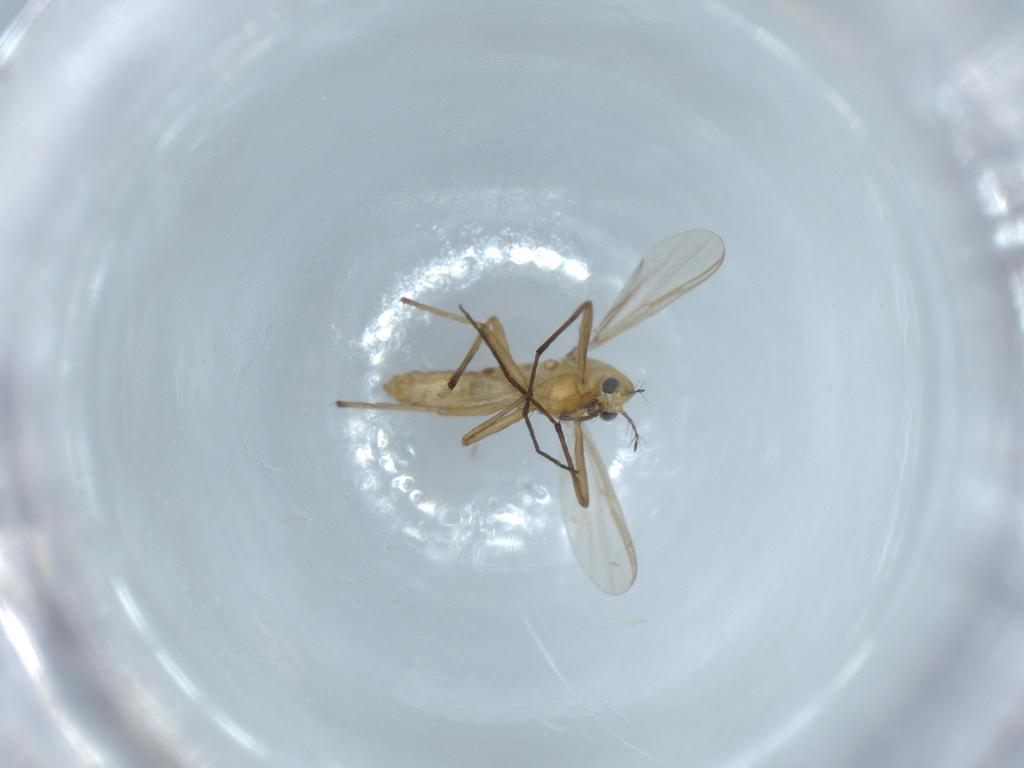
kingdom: Animalia
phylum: Arthropoda
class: Insecta
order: Diptera
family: Chironomidae
